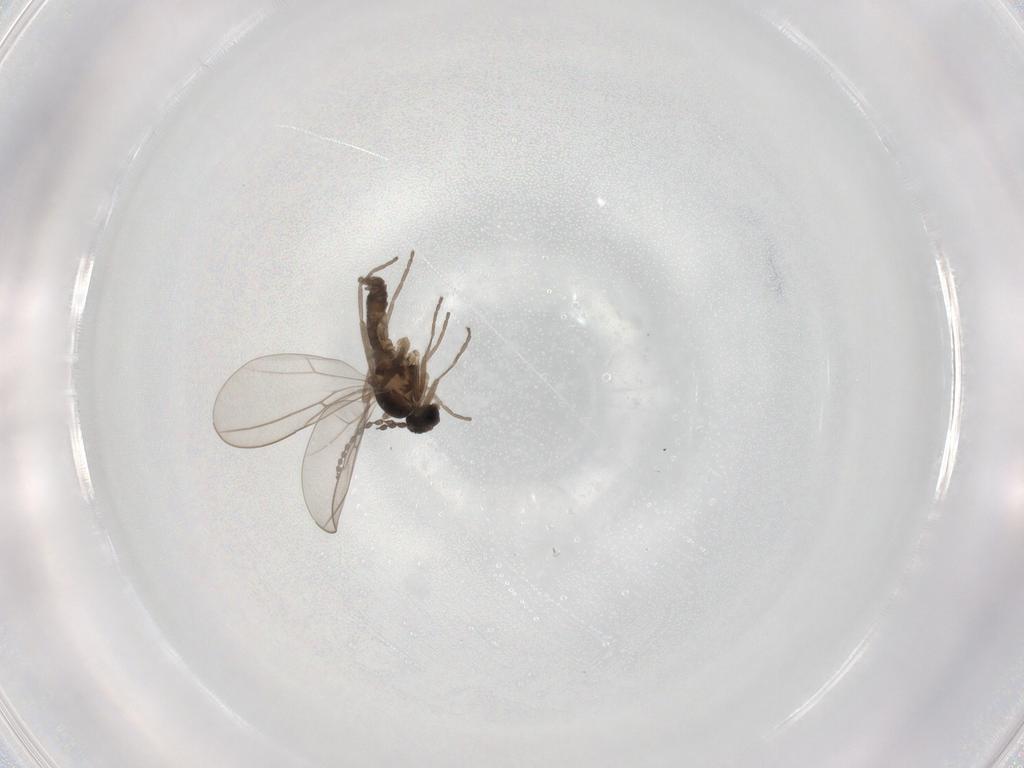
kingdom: Animalia
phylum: Arthropoda
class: Insecta
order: Diptera
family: Cecidomyiidae
